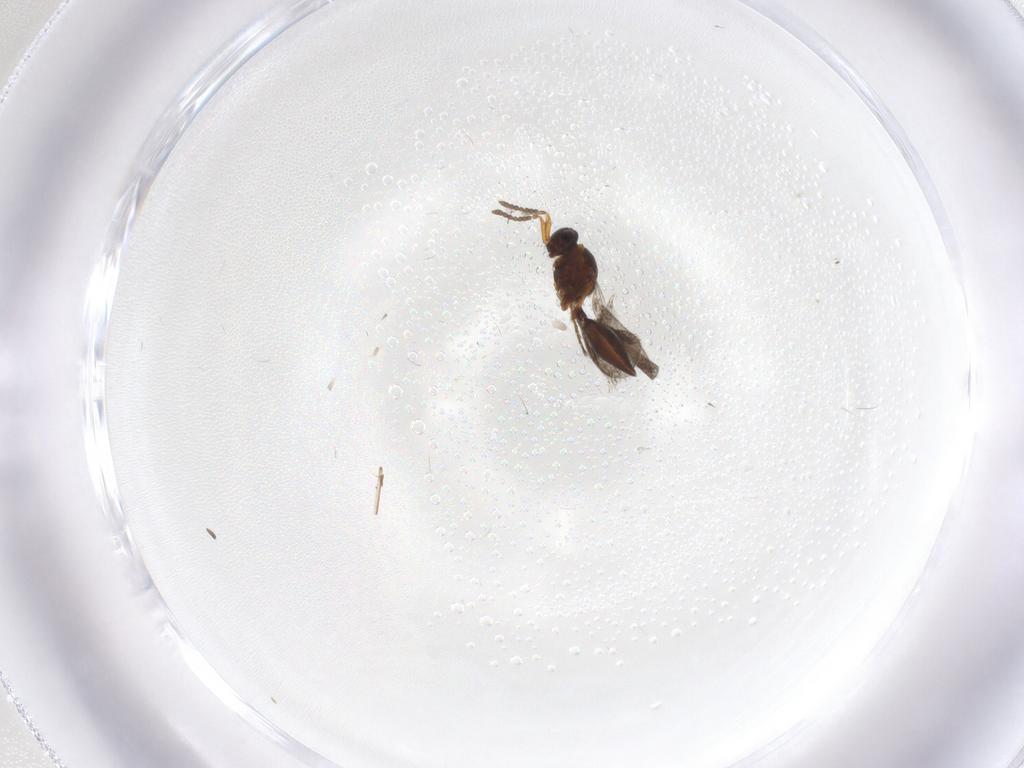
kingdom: Animalia
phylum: Arthropoda
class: Insecta
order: Hymenoptera
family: Platygastridae
